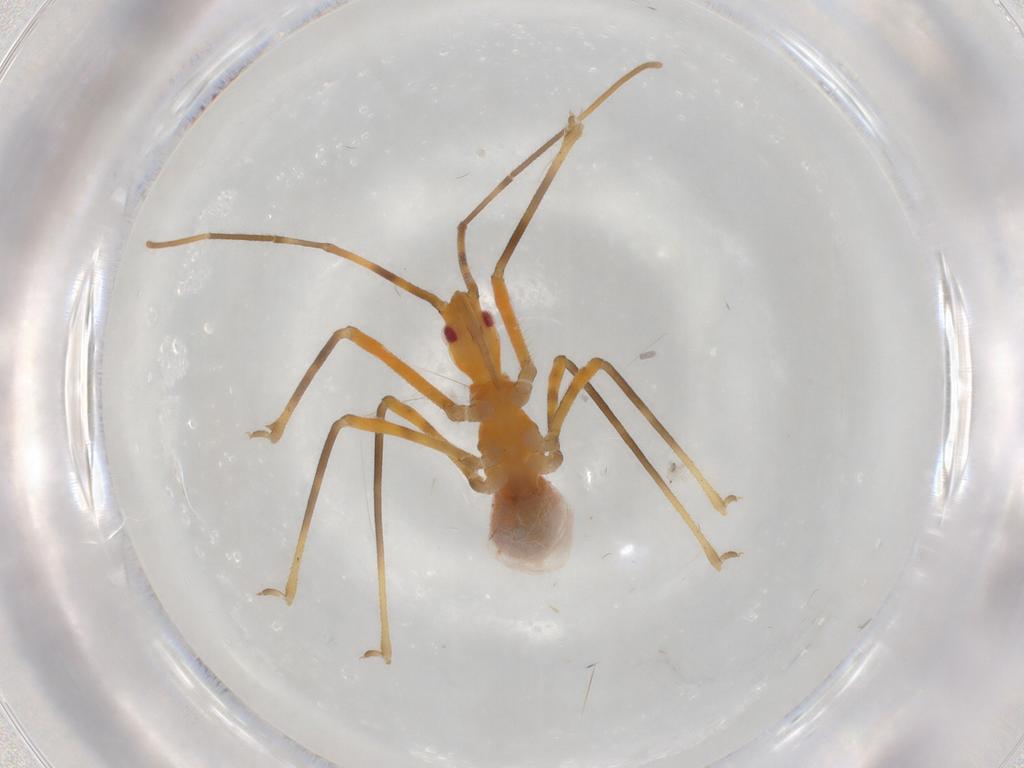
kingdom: Animalia
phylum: Arthropoda
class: Insecta
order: Hemiptera
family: Reduviidae
